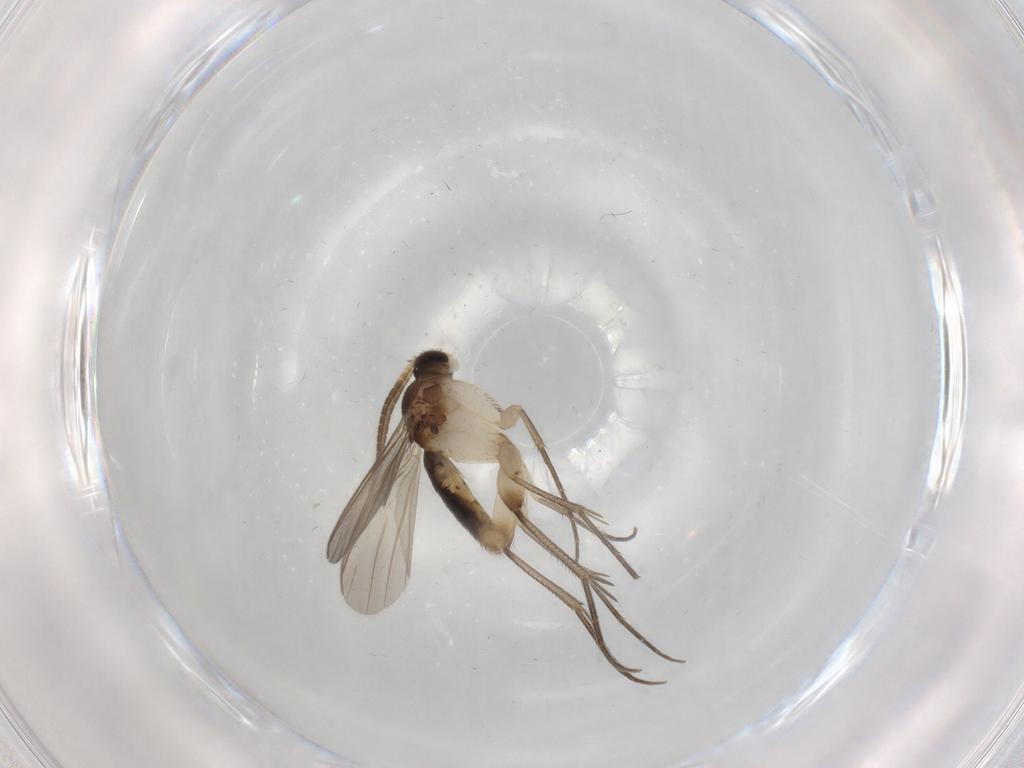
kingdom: Animalia
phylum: Arthropoda
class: Insecta
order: Diptera
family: Mycetophilidae
